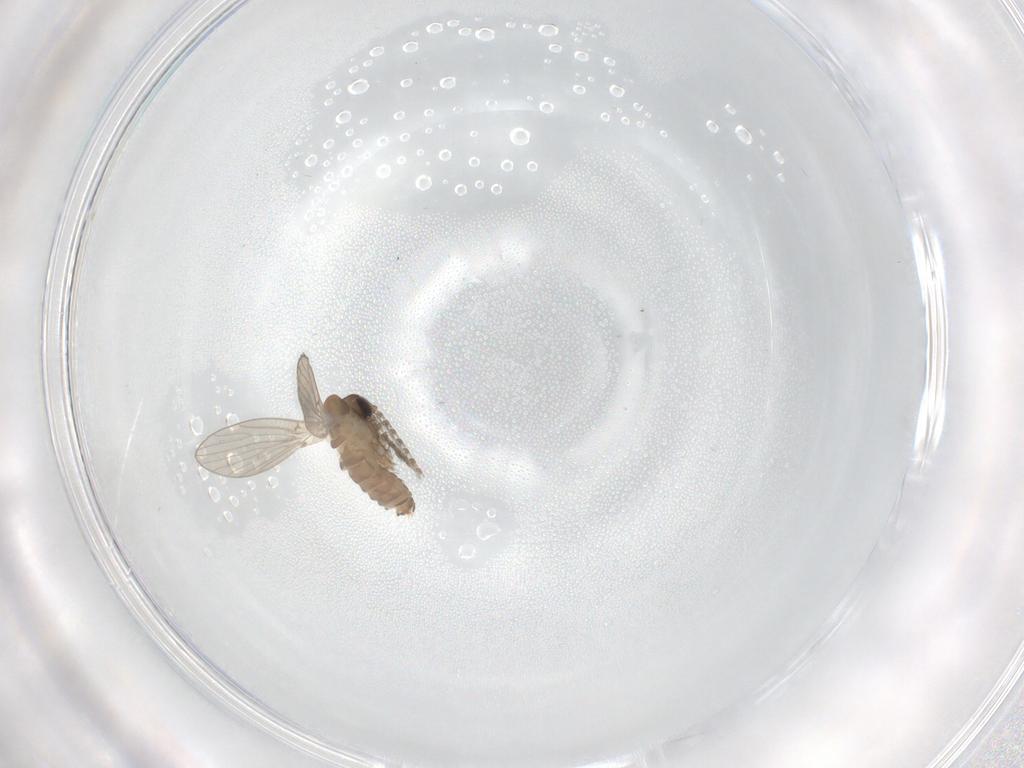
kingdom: Animalia
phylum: Arthropoda
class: Insecta
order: Diptera
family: Psychodidae
